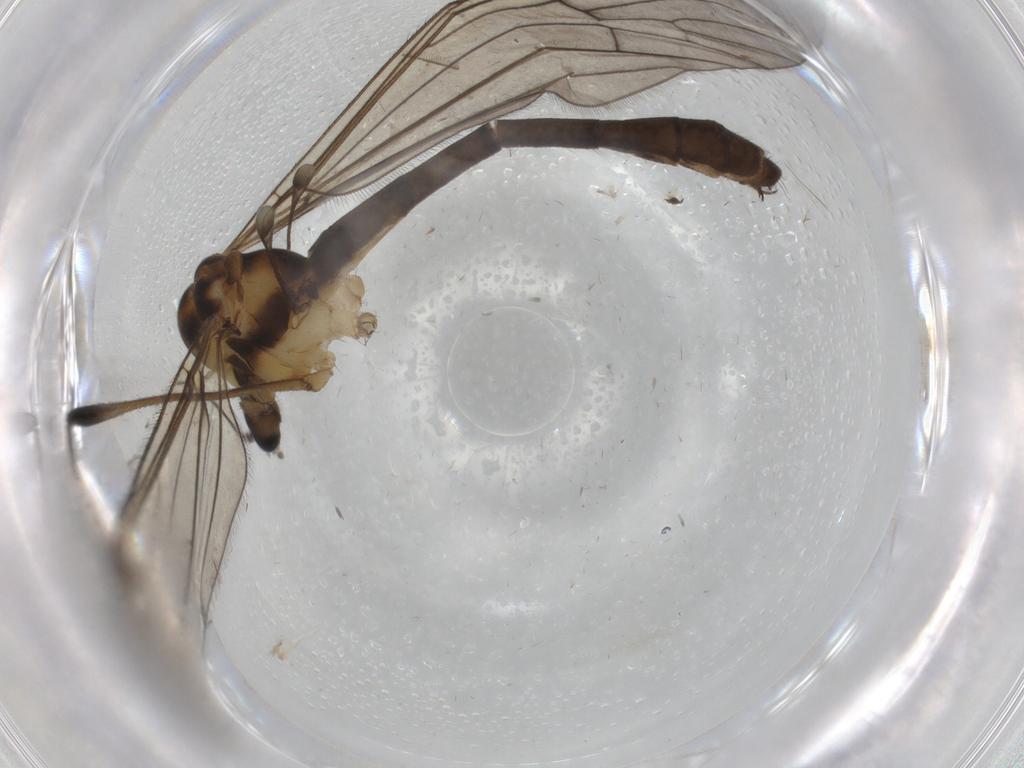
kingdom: Animalia
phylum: Arthropoda
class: Insecta
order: Diptera
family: Limoniidae
